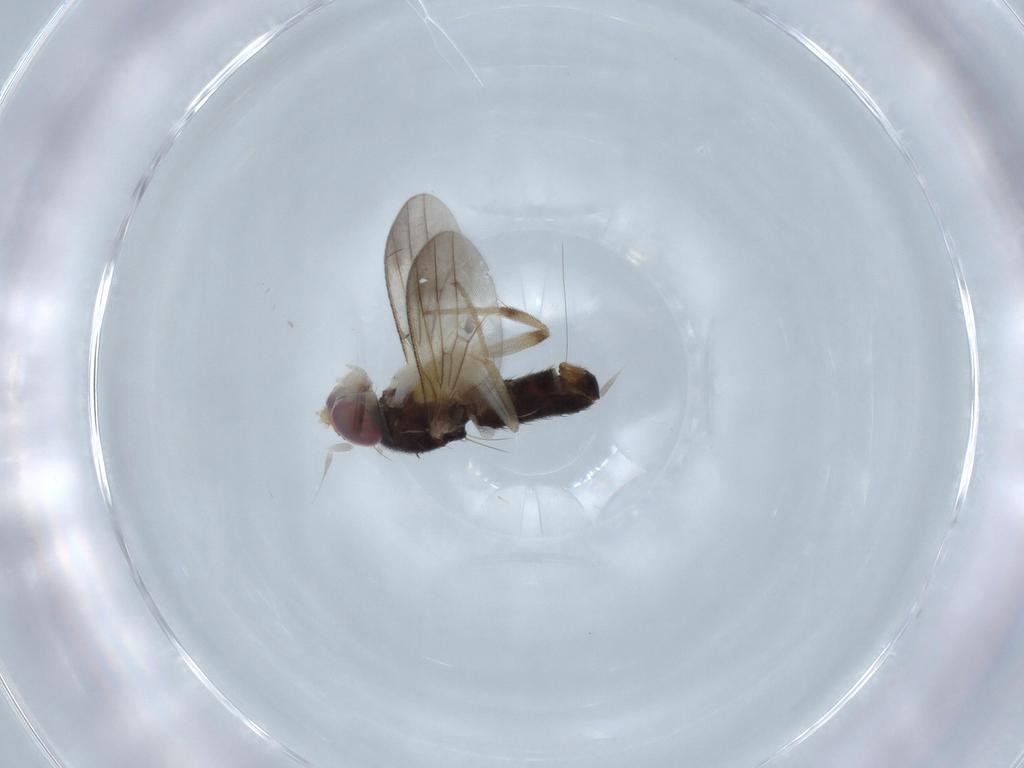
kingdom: Animalia
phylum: Arthropoda
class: Insecta
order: Diptera
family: Clusiidae
